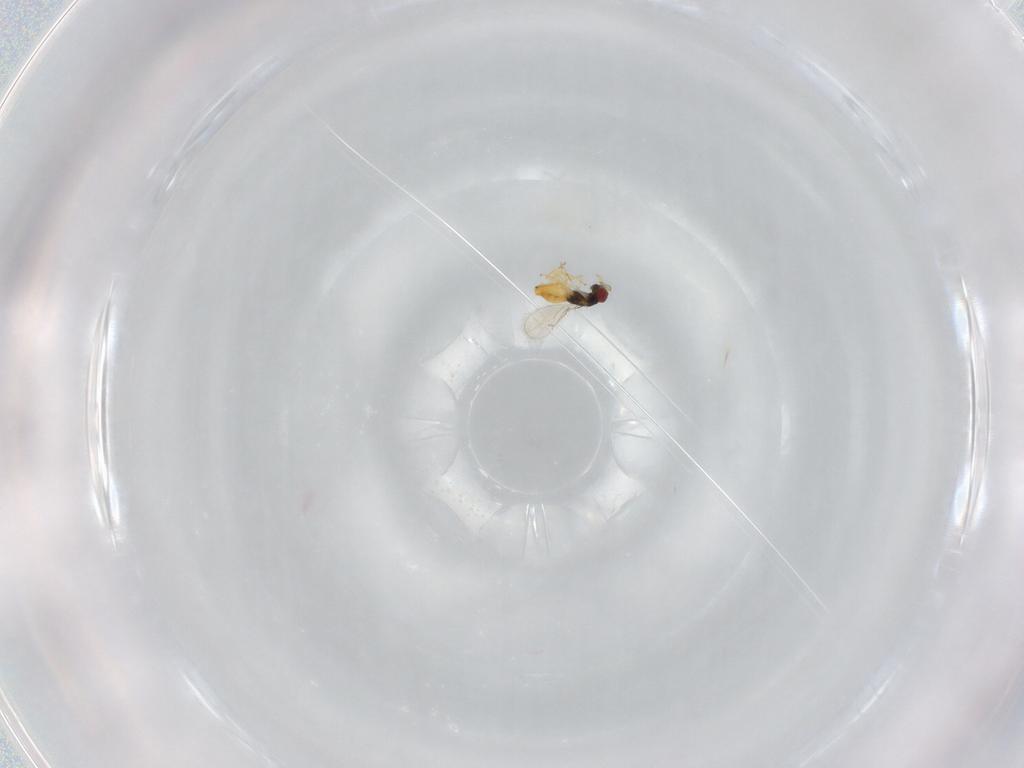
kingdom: Animalia
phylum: Arthropoda
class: Insecta
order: Hymenoptera
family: Eulophidae
